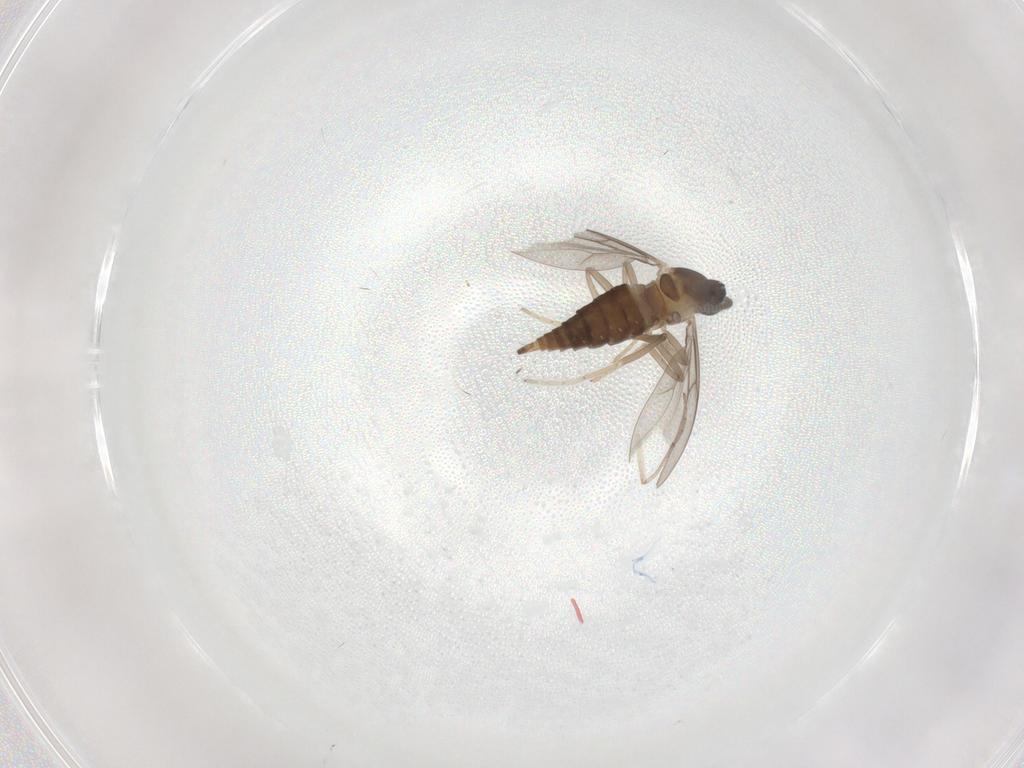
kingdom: Animalia
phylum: Arthropoda
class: Insecta
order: Diptera
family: Cecidomyiidae
